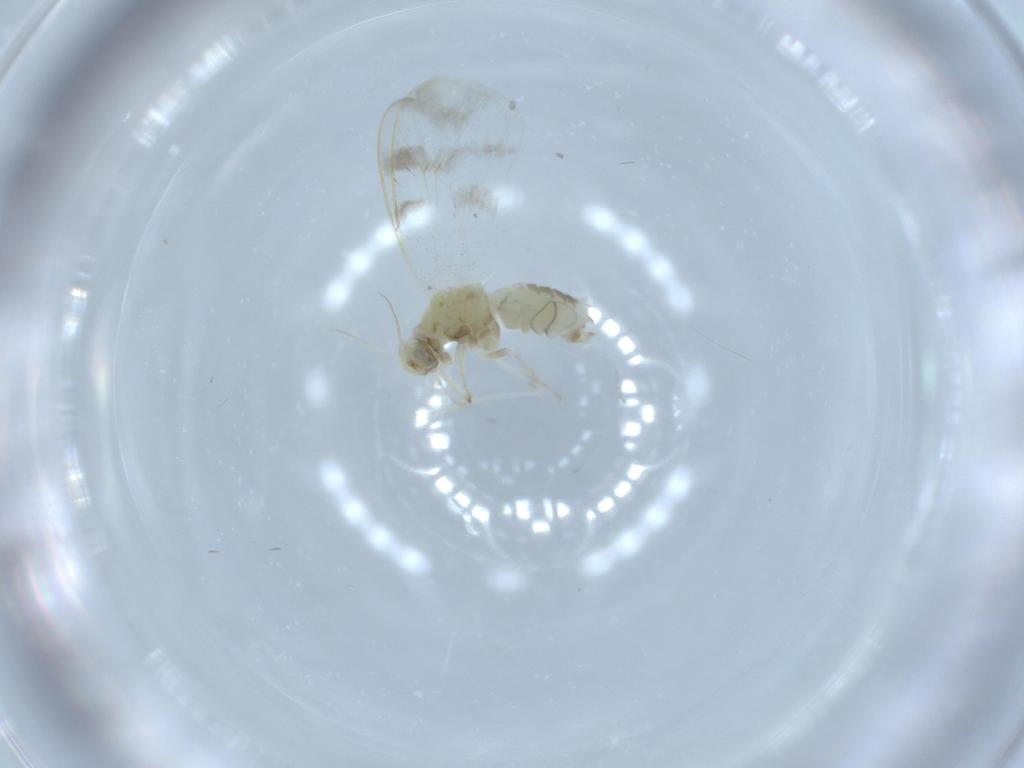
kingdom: Animalia
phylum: Arthropoda
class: Insecta
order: Hemiptera
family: Aleyrodidae
